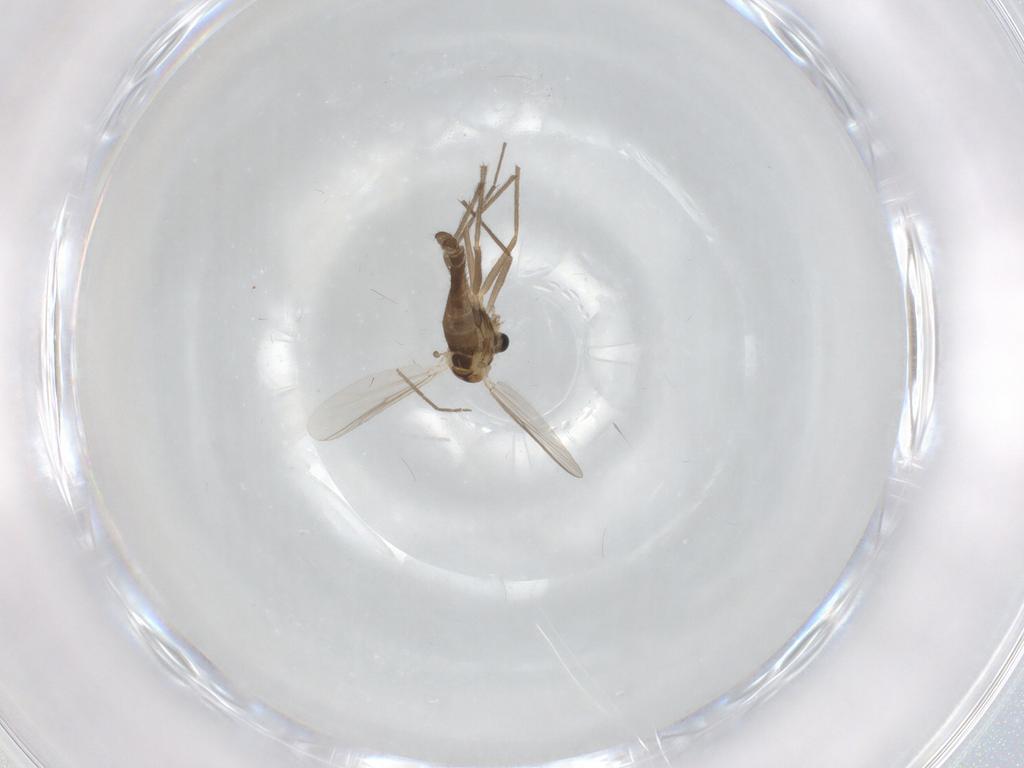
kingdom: Animalia
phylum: Arthropoda
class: Insecta
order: Diptera
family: Chironomidae
